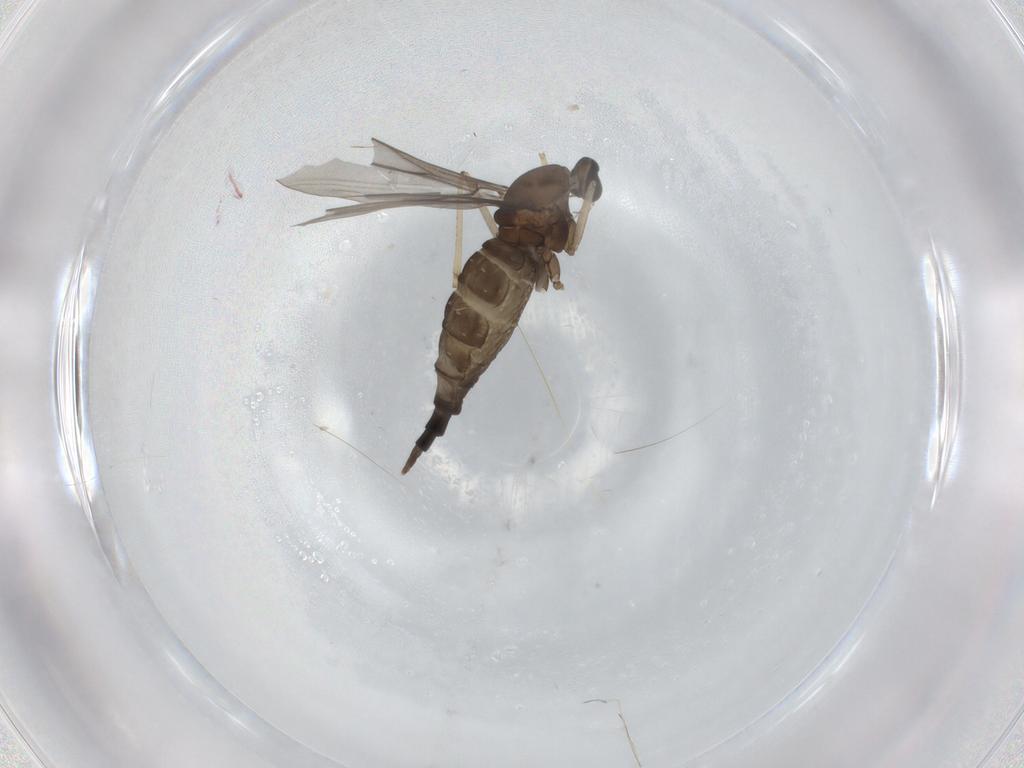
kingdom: Animalia
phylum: Arthropoda
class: Insecta
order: Diptera
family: Cecidomyiidae
